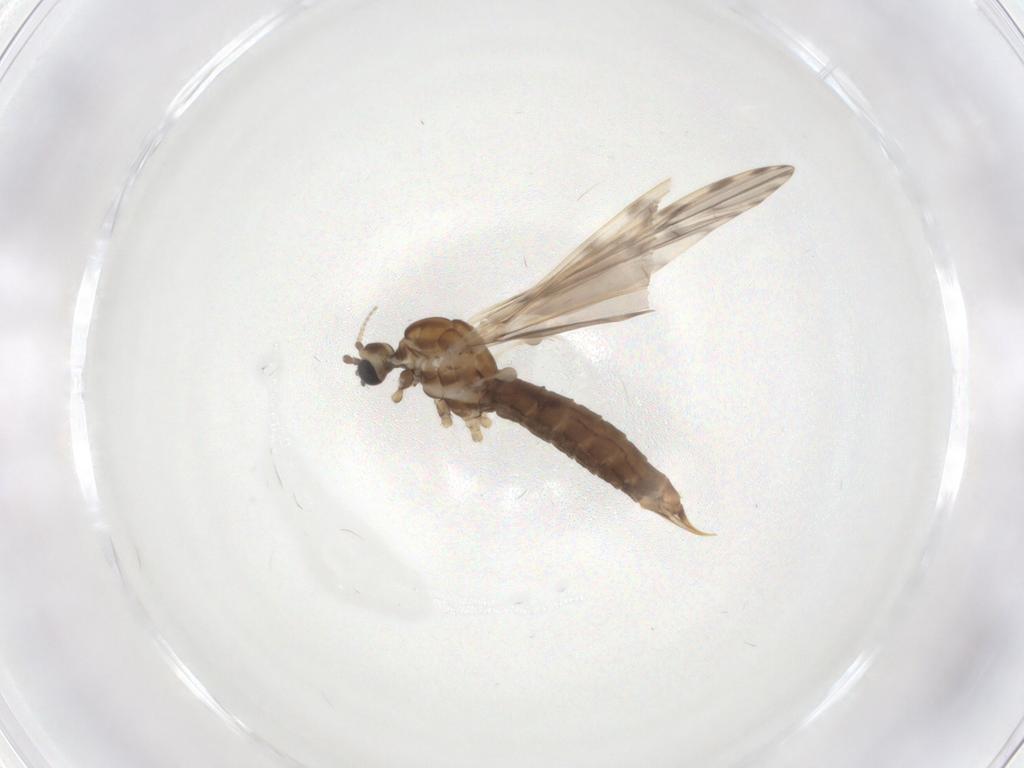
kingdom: Animalia
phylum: Arthropoda
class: Insecta
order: Diptera
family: Limoniidae
